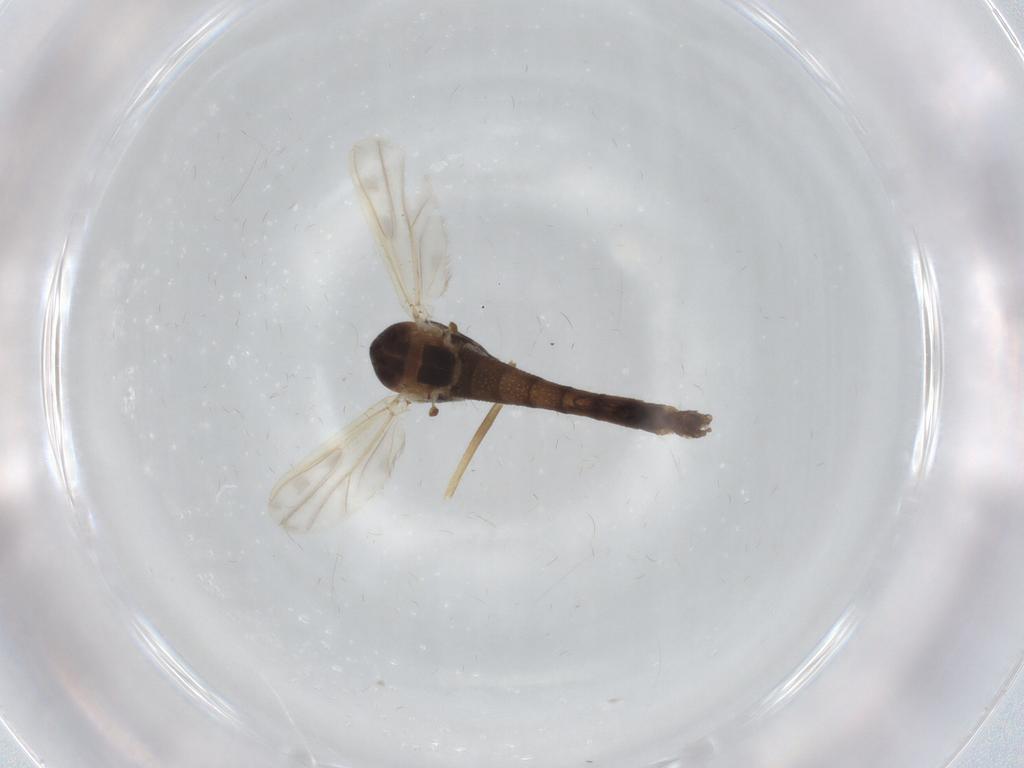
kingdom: Animalia
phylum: Arthropoda
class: Insecta
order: Diptera
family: Chironomidae
